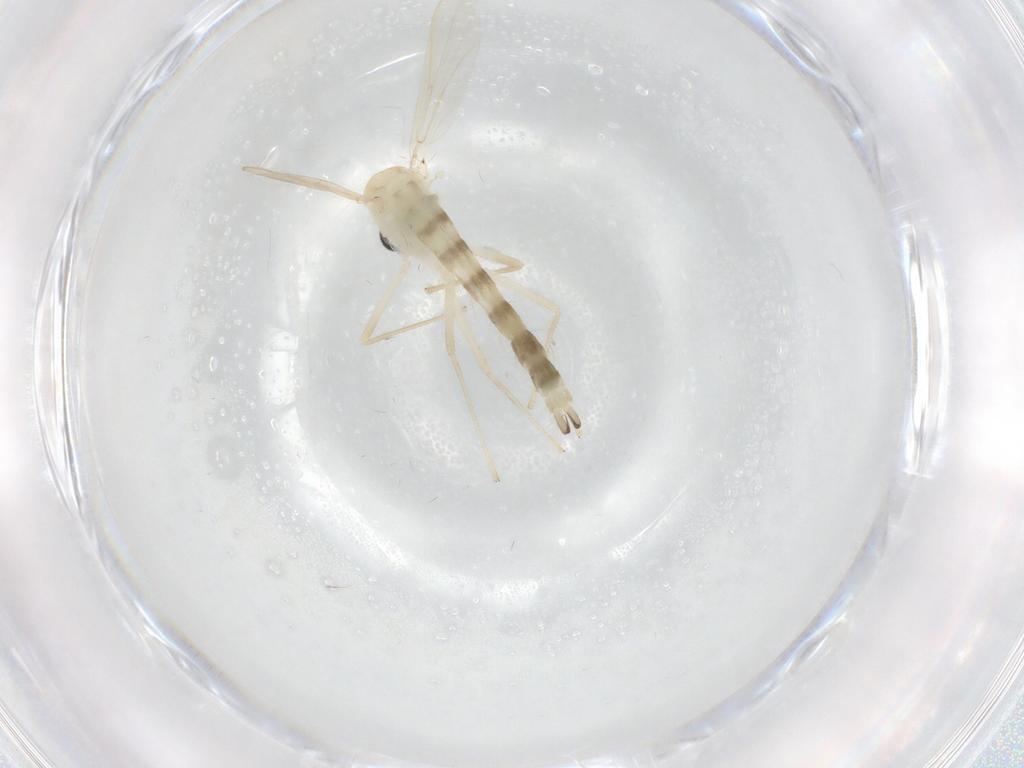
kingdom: Animalia
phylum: Arthropoda
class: Insecta
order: Diptera
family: Chironomidae
